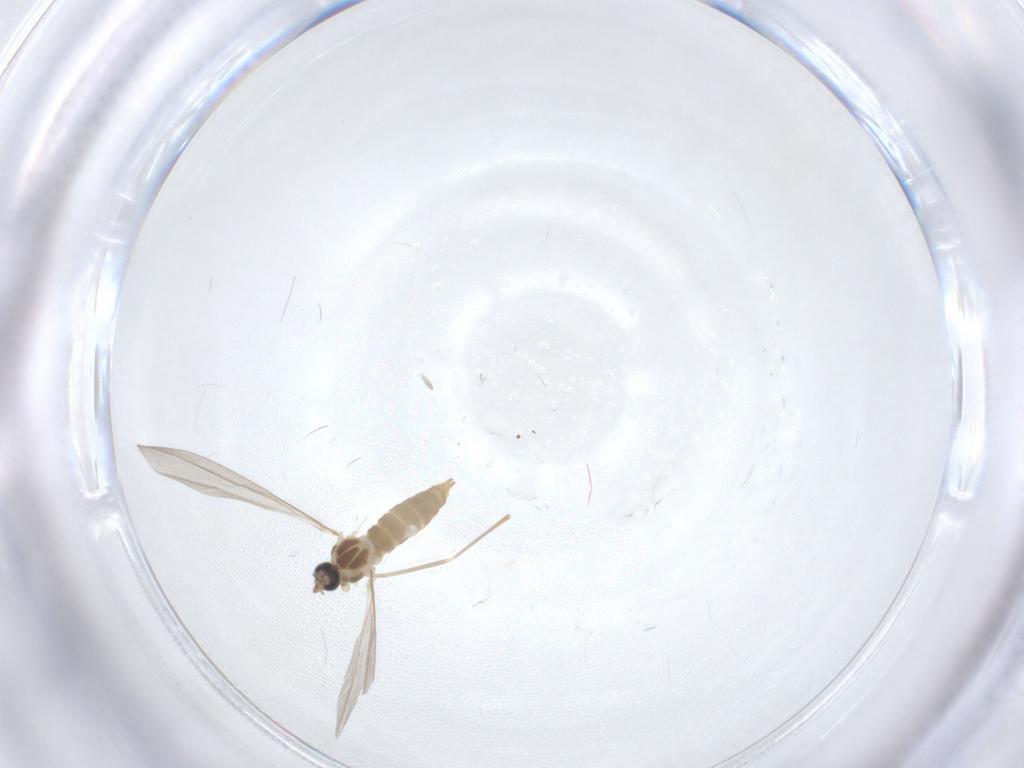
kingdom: Animalia
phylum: Arthropoda
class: Insecta
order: Diptera
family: Cecidomyiidae
